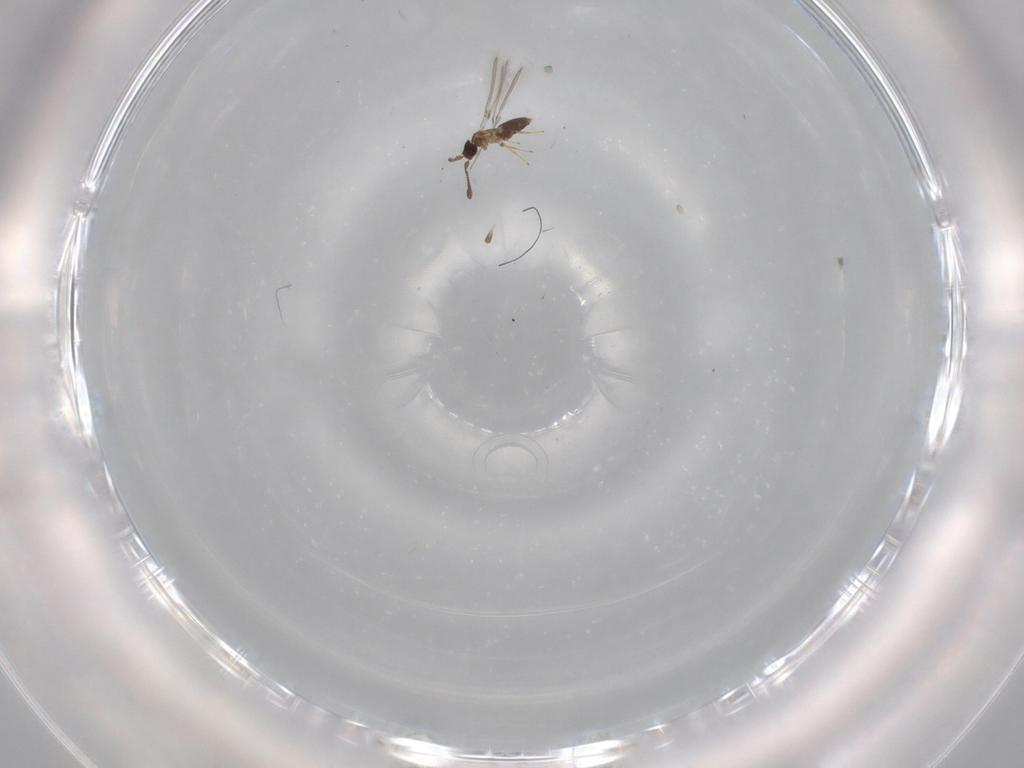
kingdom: Animalia
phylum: Arthropoda
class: Insecta
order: Hymenoptera
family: Mymaridae
